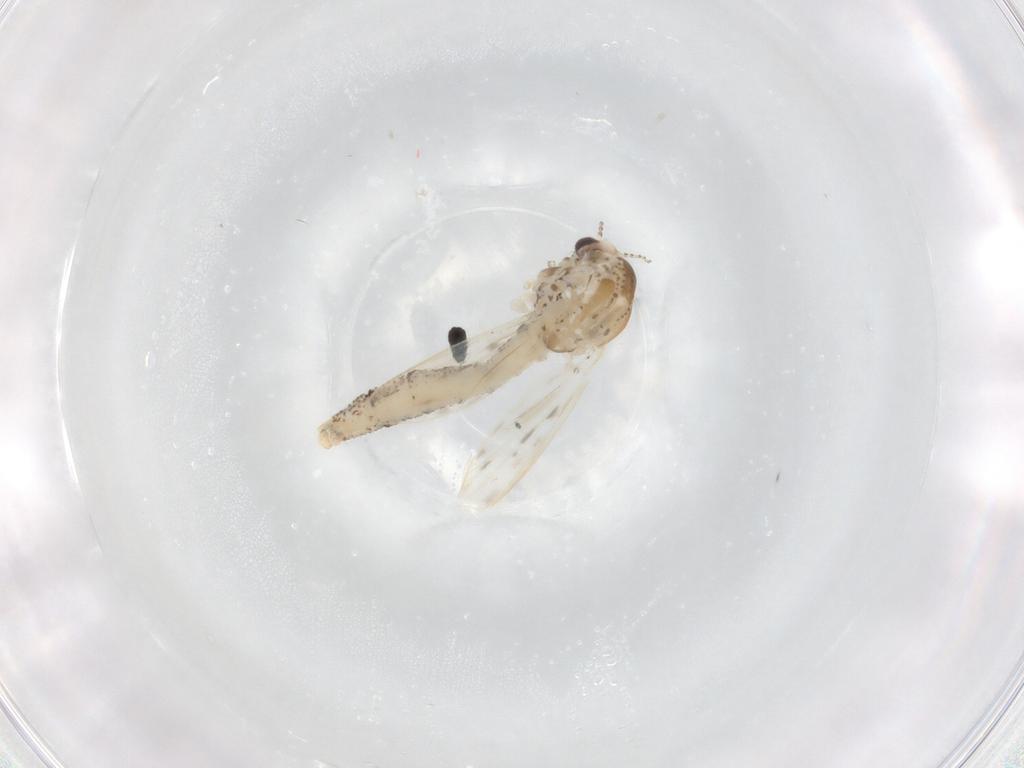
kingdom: Animalia
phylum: Arthropoda
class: Insecta
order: Diptera
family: Chaoboridae
